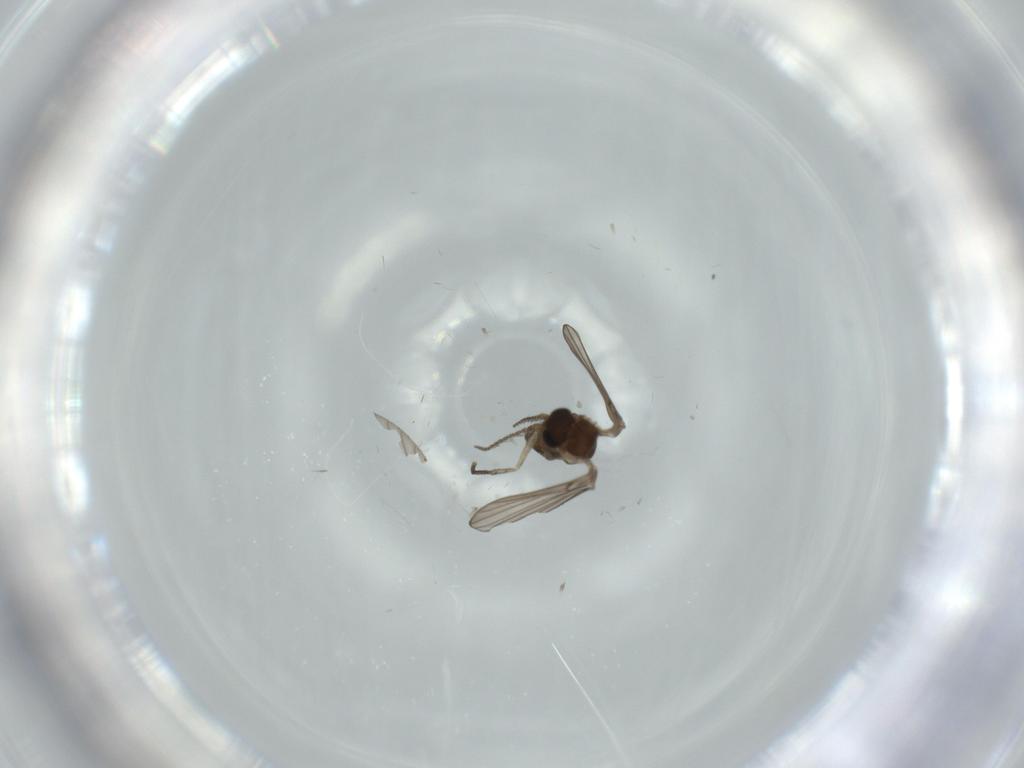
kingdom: Animalia
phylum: Arthropoda
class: Insecta
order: Diptera
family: Psychodidae
